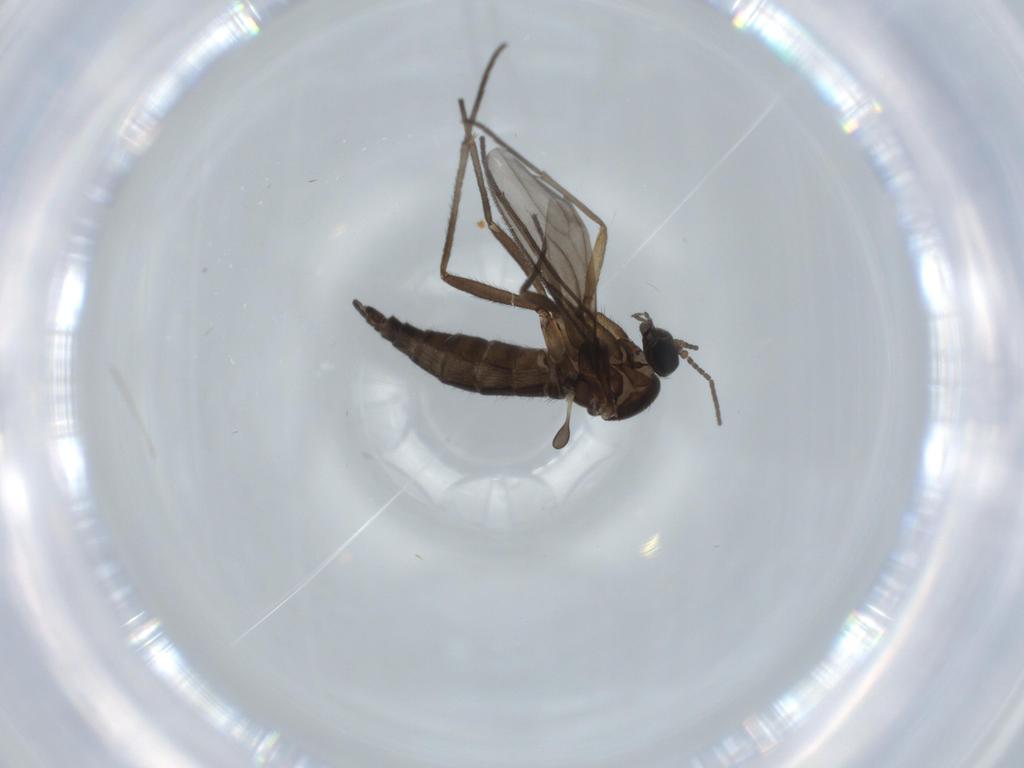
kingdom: Animalia
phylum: Arthropoda
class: Insecta
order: Diptera
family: Sciaridae
